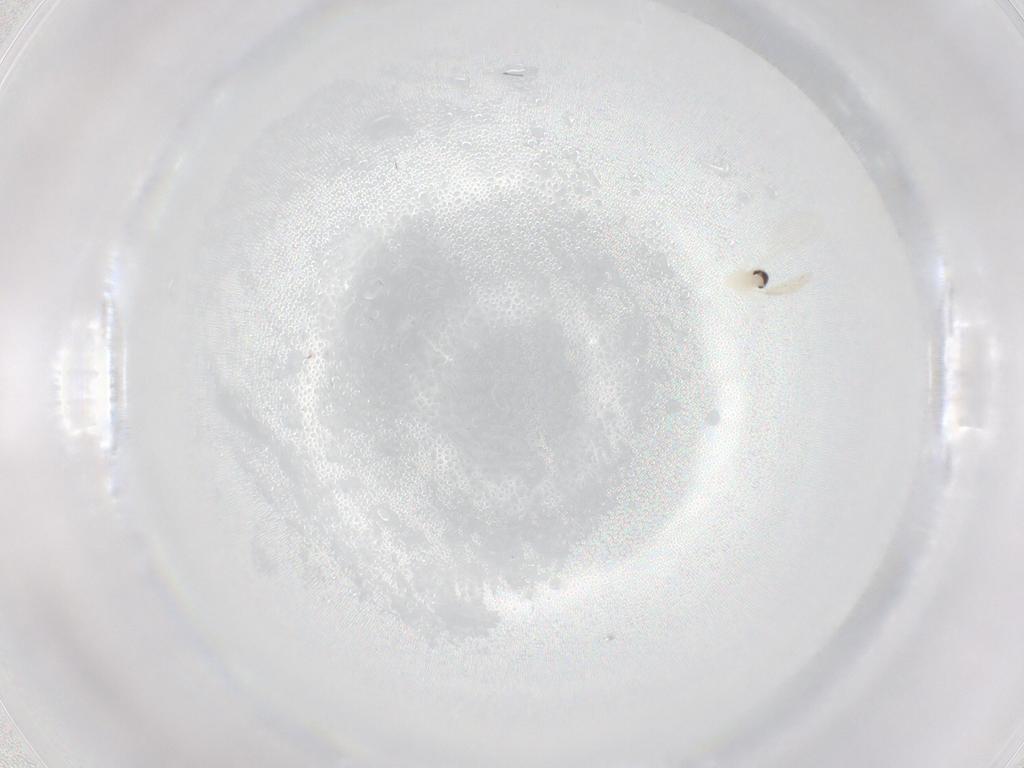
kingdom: Animalia
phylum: Arthropoda
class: Insecta
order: Diptera
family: Cecidomyiidae
